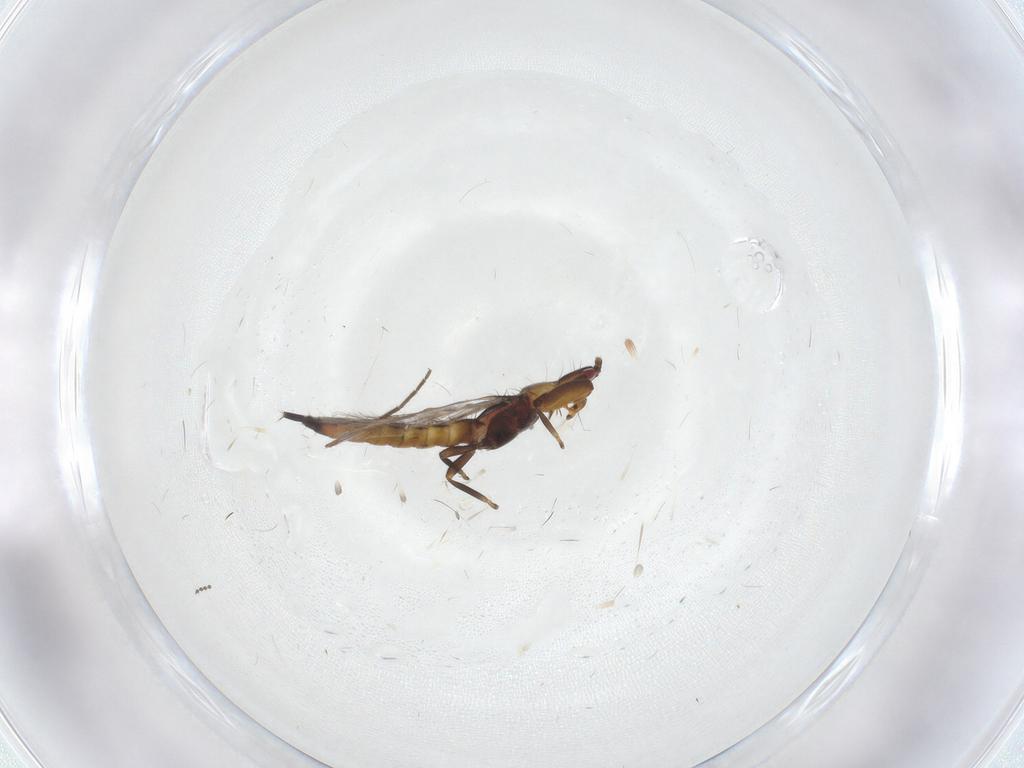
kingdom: Animalia
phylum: Arthropoda
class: Insecta
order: Thysanoptera
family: Phlaeothripidae
